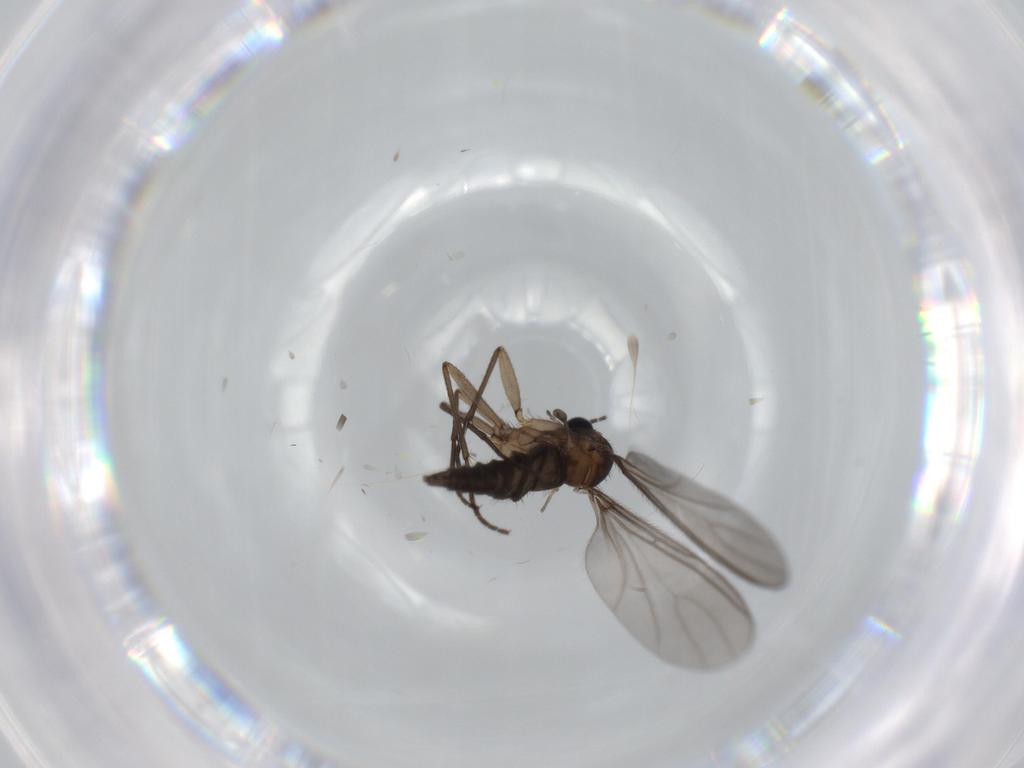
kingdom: Animalia
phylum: Arthropoda
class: Insecta
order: Diptera
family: Sciaridae
